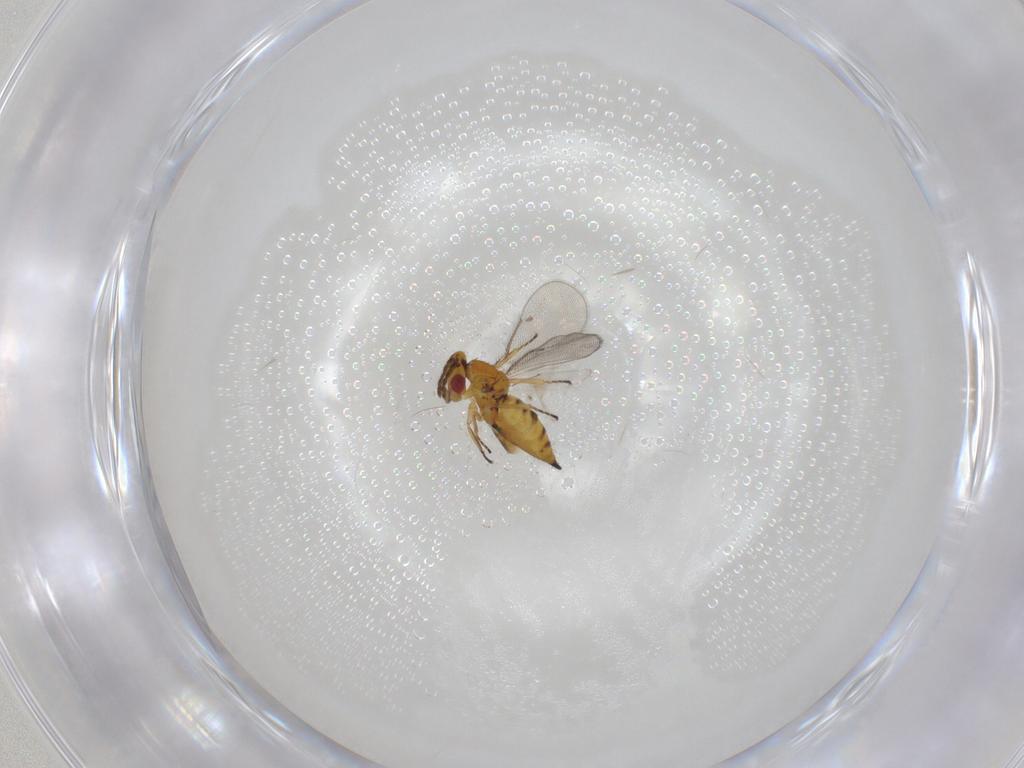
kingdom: Animalia
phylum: Arthropoda
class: Insecta
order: Hymenoptera
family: Eulophidae
